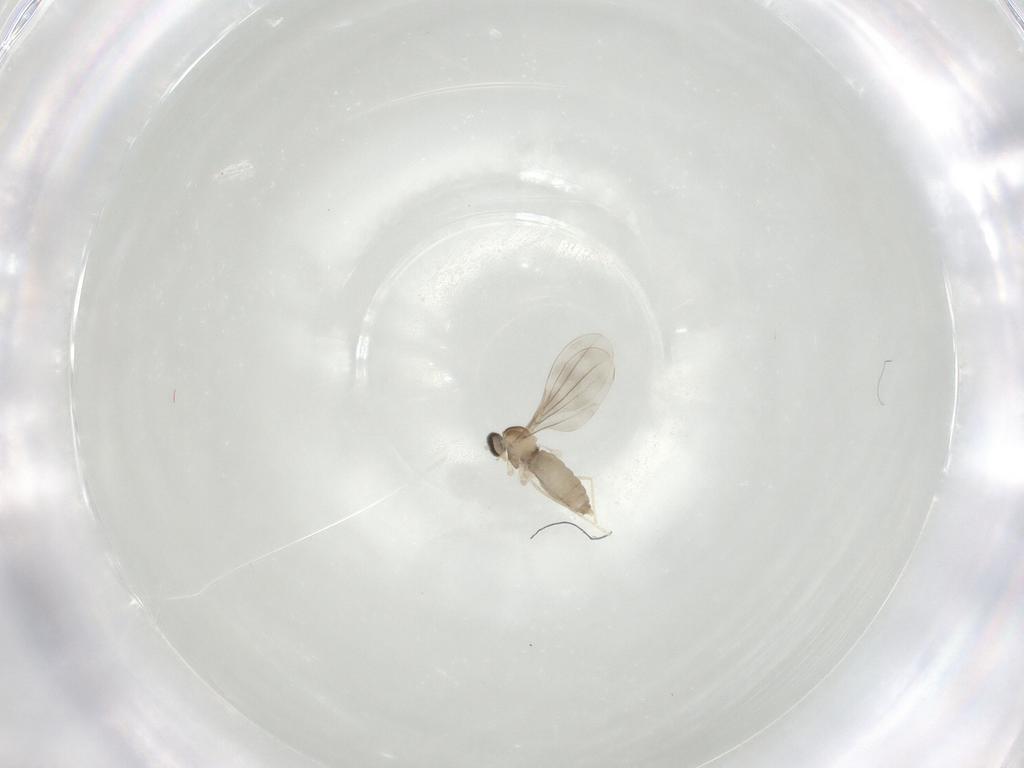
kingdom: Animalia
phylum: Arthropoda
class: Insecta
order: Diptera
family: Cecidomyiidae
